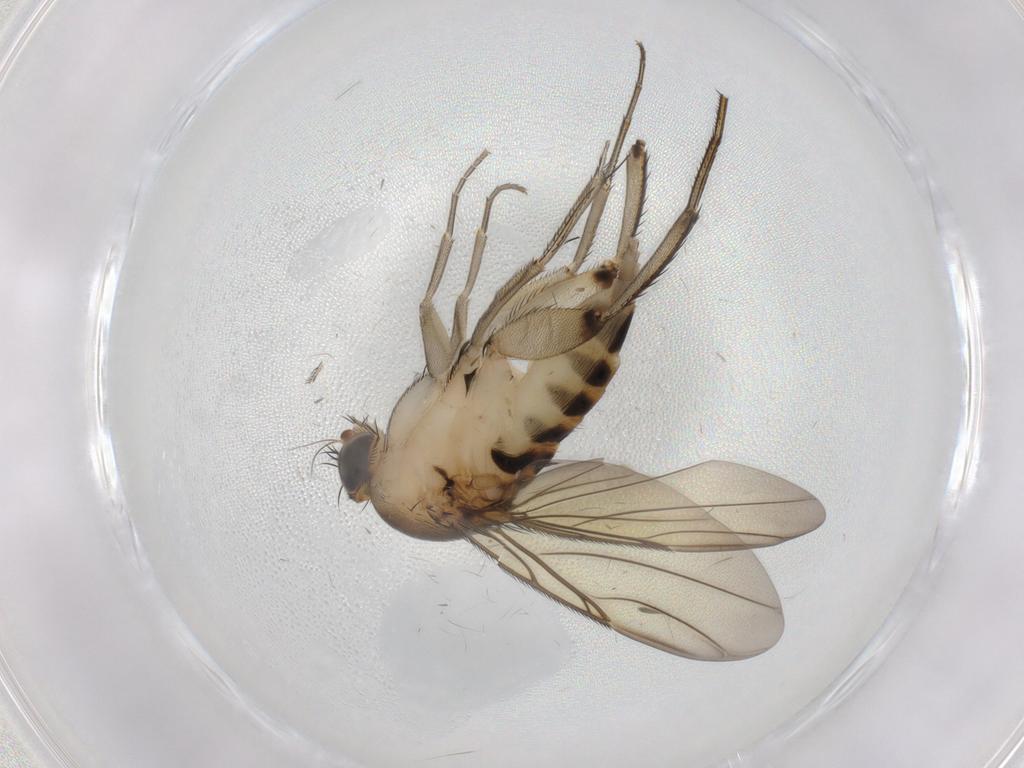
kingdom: Animalia
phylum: Arthropoda
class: Insecta
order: Diptera
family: Phoridae
